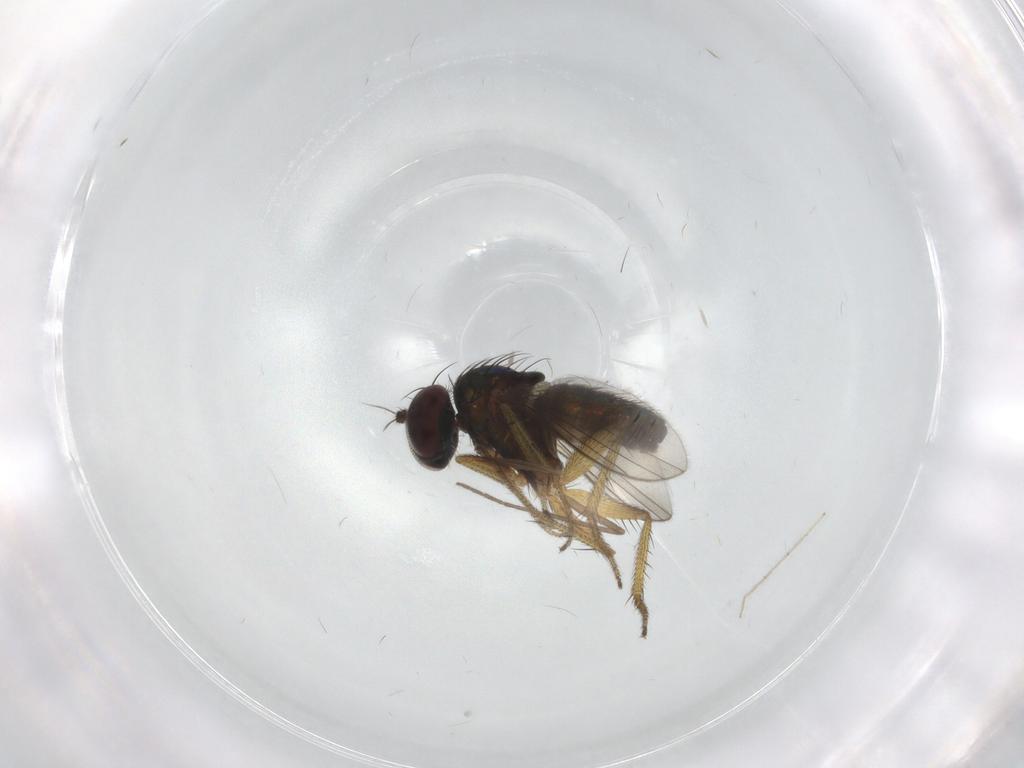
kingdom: Animalia
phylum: Arthropoda
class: Insecta
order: Diptera
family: Chironomidae
